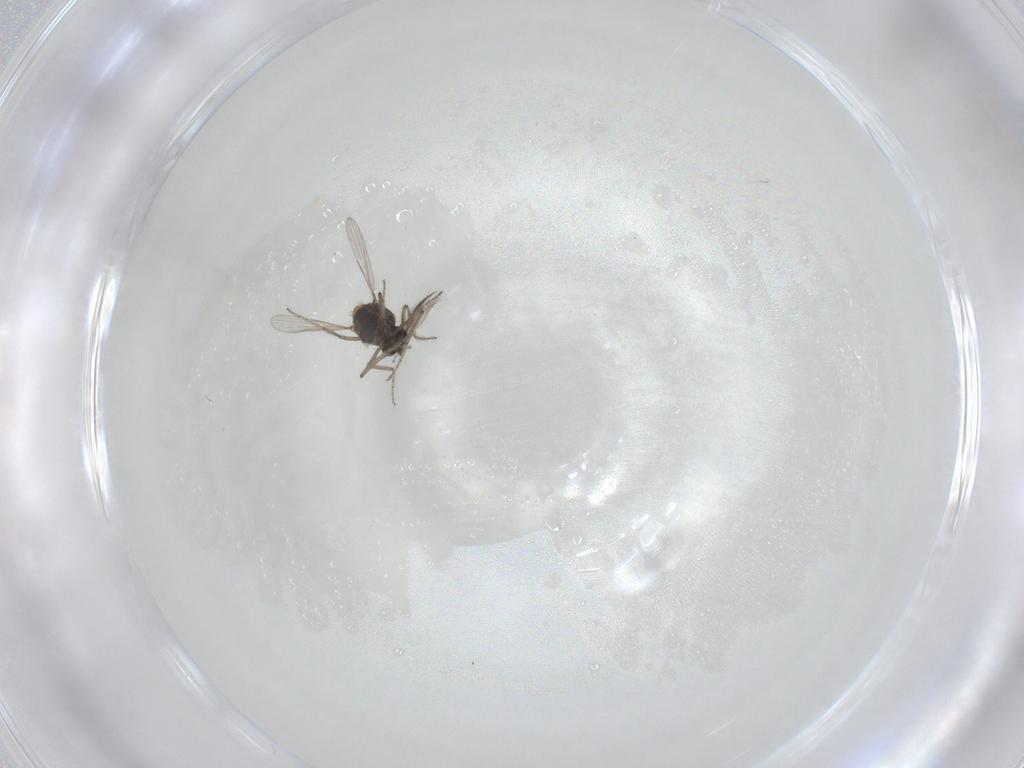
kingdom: Animalia
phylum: Arthropoda
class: Insecta
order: Diptera
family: Ceratopogonidae
